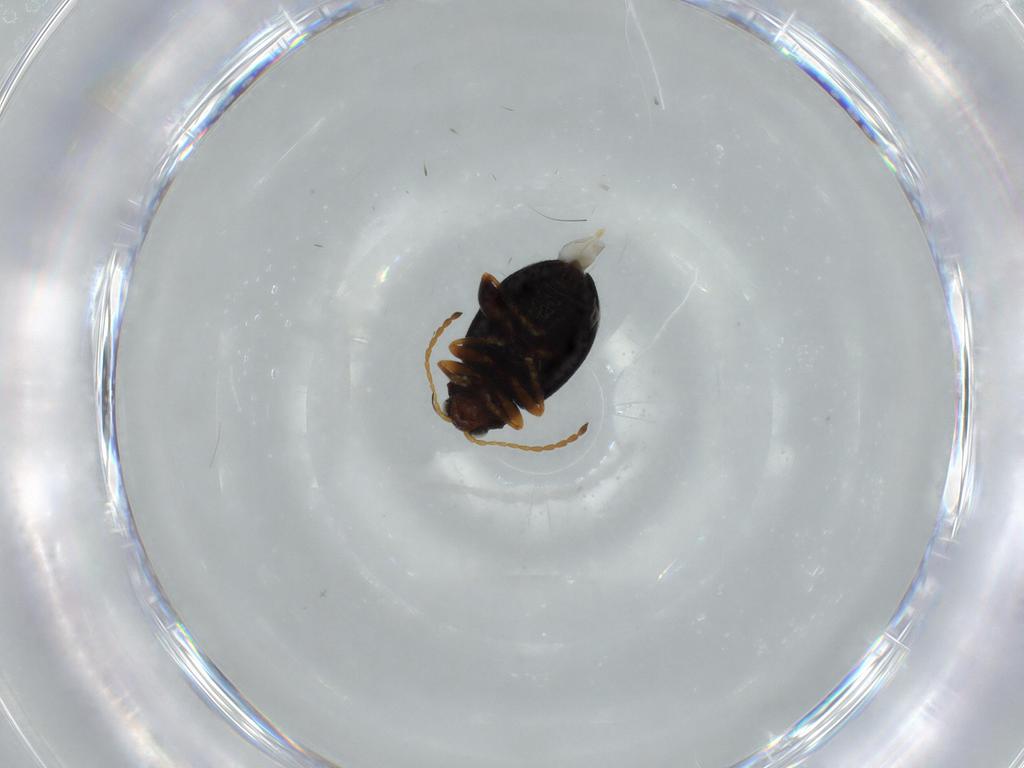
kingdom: Animalia
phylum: Arthropoda
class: Insecta
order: Coleoptera
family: Chrysomelidae
